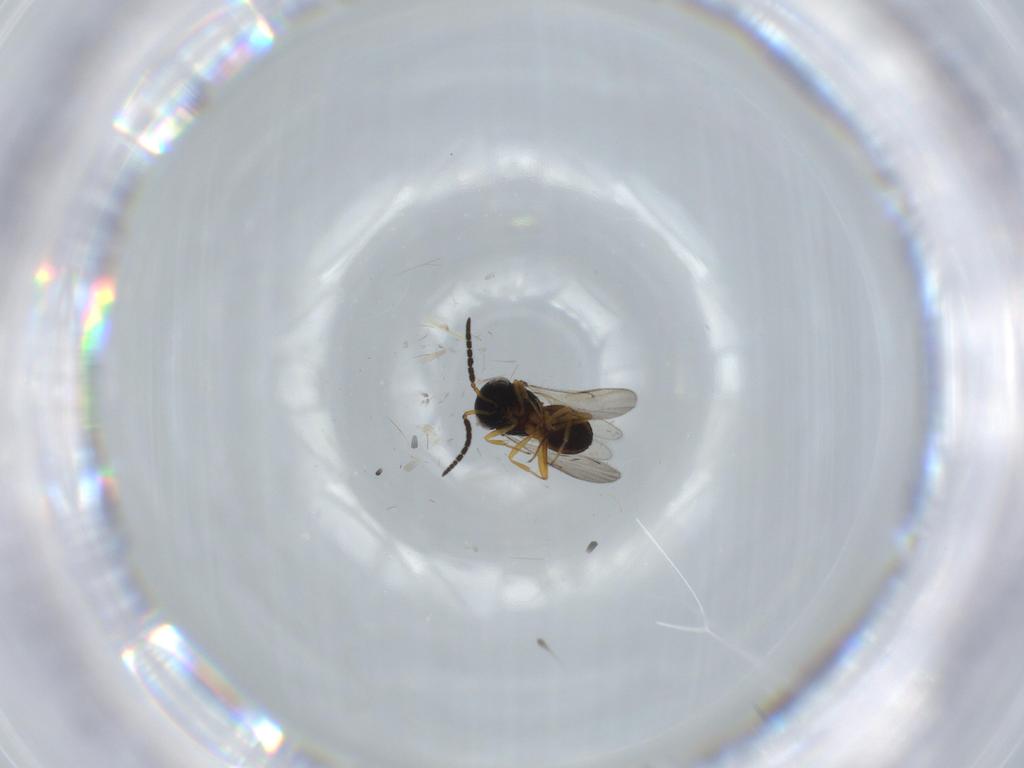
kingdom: Animalia
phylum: Arthropoda
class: Insecta
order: Coleoptera
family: Curculionidae
